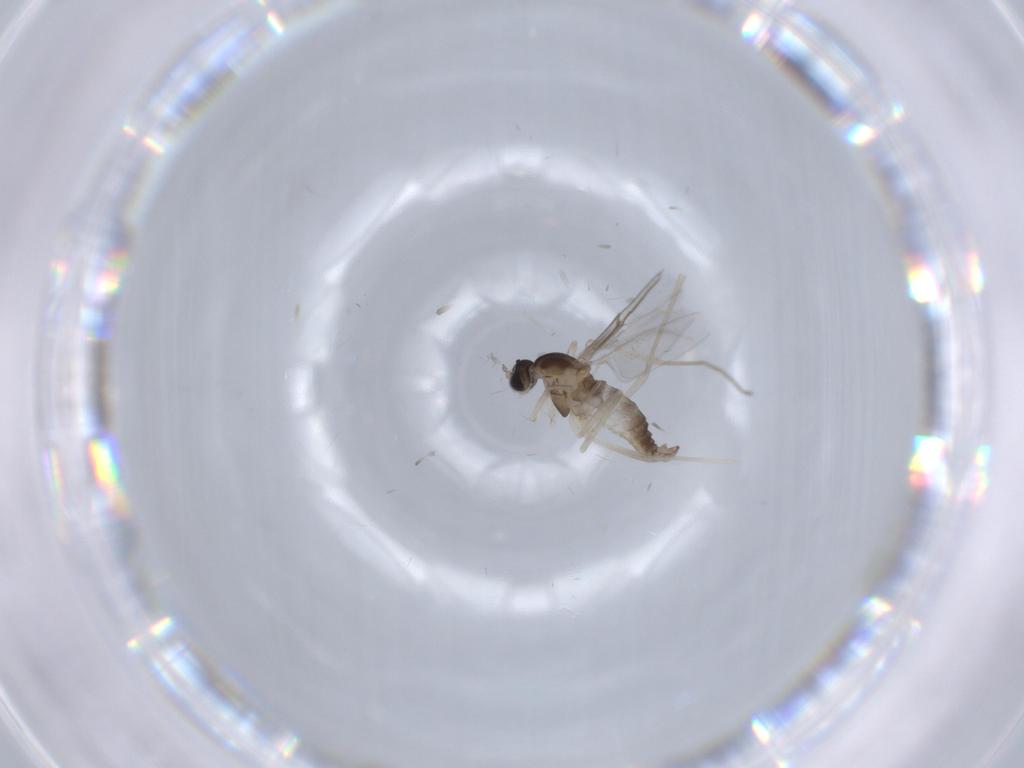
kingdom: Animalia
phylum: Arthropoda
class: Insecta
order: Diptera
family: Cecidomyiidae
